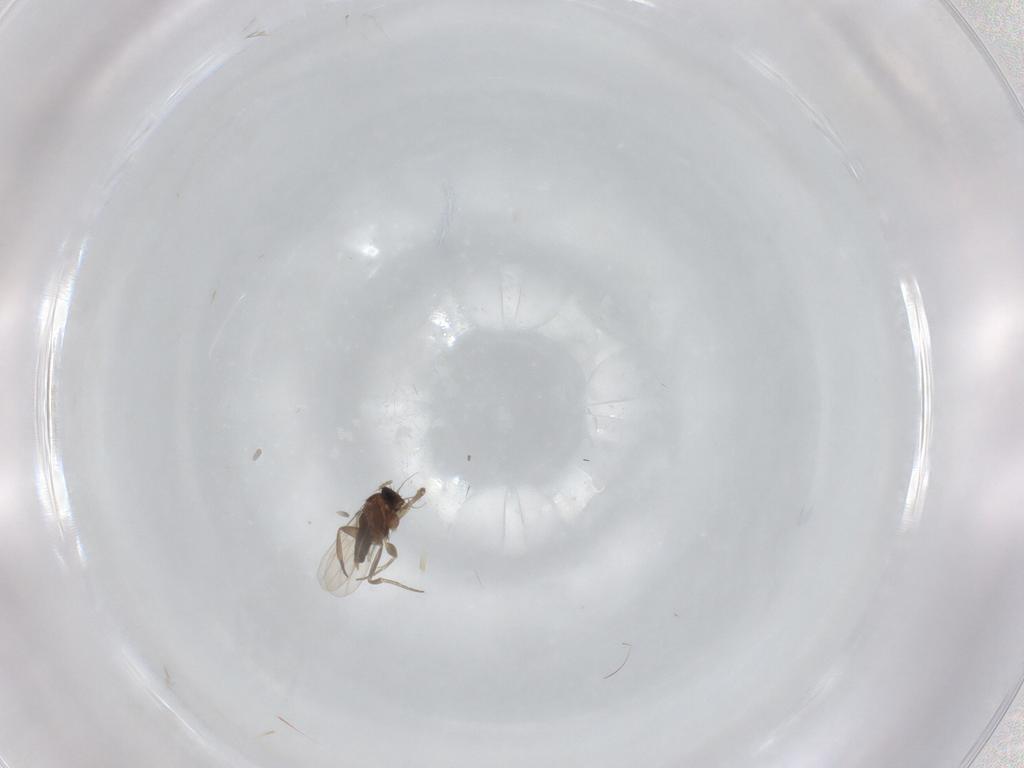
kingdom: Animalia
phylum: Arthropoda
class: Insecta
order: Diptera
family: Phoridae
